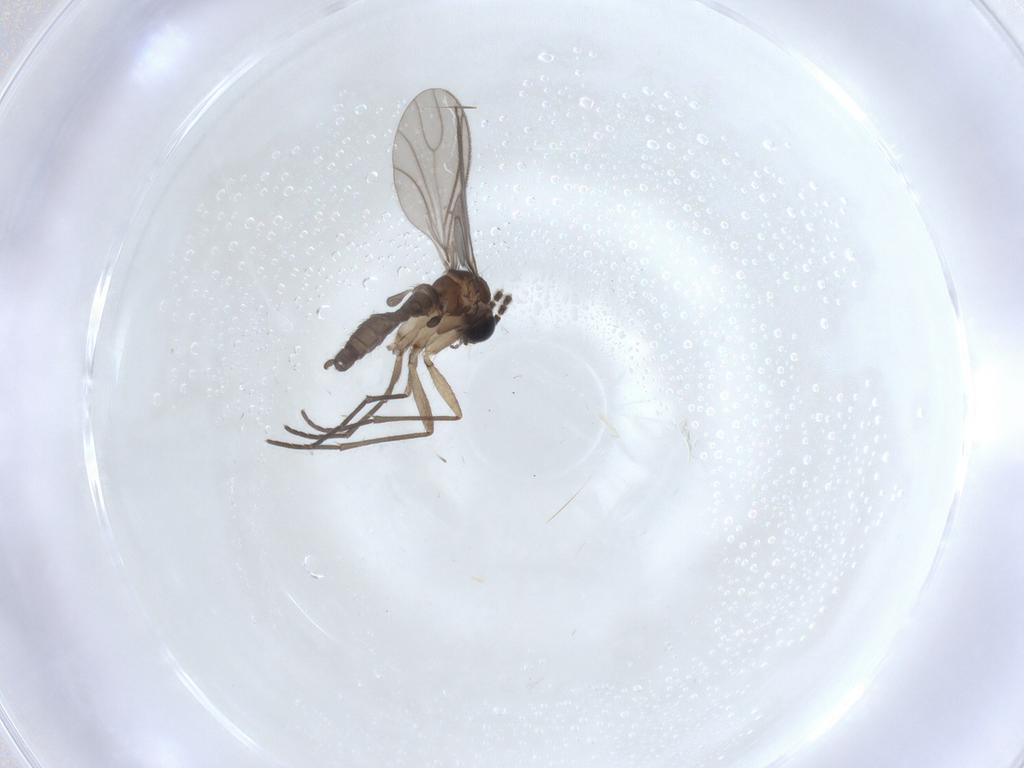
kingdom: Animalia
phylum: Arthropoda
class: Insecta
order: Diptera
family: Sciaridae
